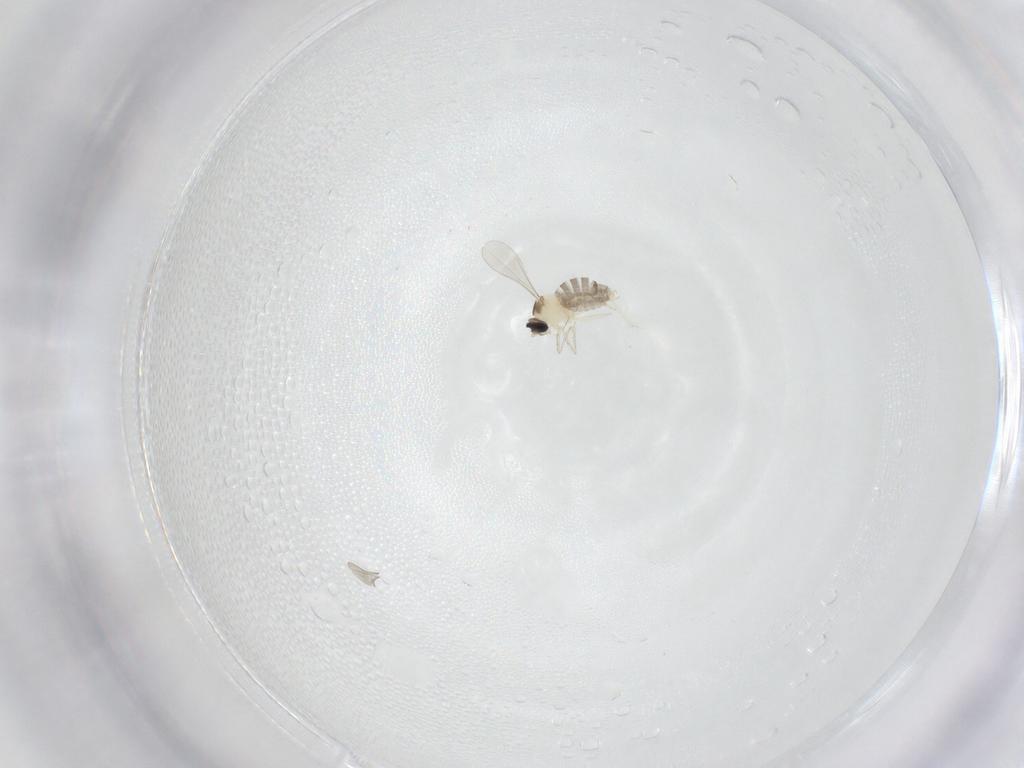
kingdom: Animalia
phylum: Arthropoda
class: Insecta
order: Diptera
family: Cecidomyiidae
